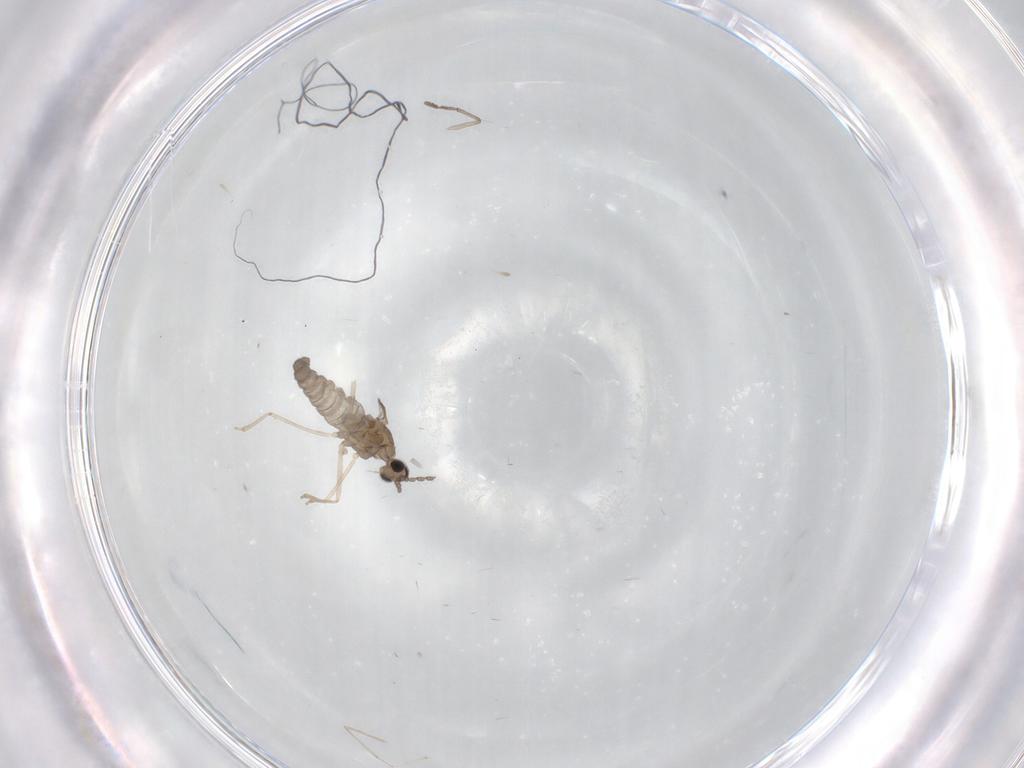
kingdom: Animalia
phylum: Arthropoda
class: Insecta
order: Diptera
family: Cecidomyiidae
